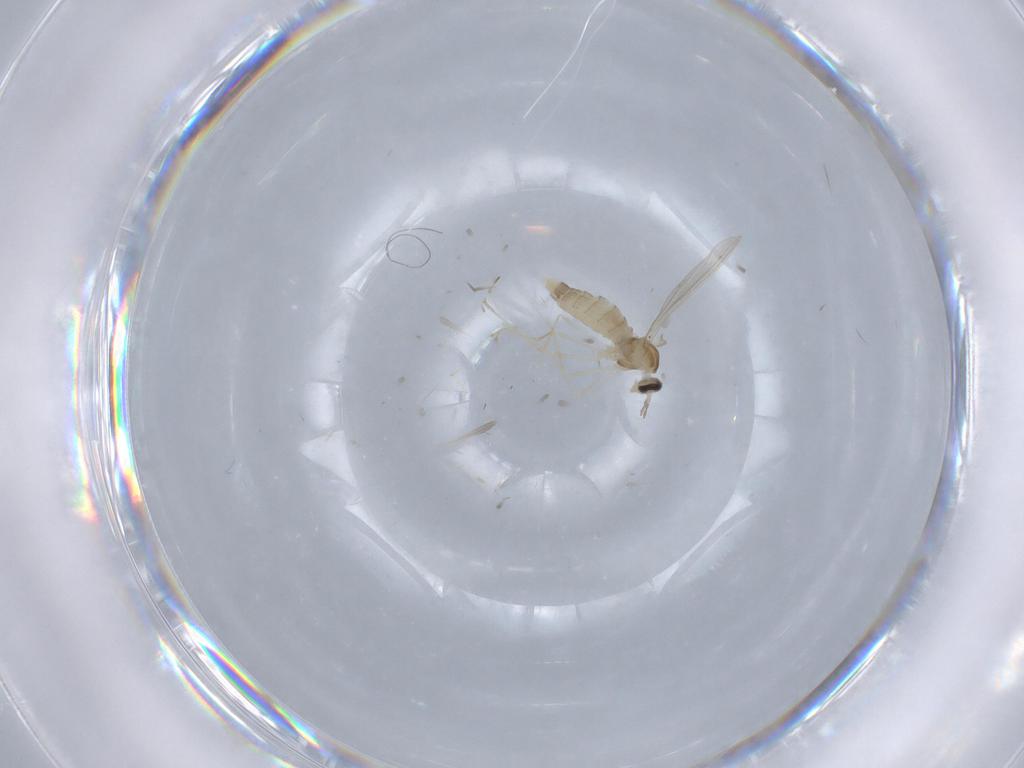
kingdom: Animalia
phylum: Arthropoda
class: Insecta
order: Diptera
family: Cecidomyiidae
